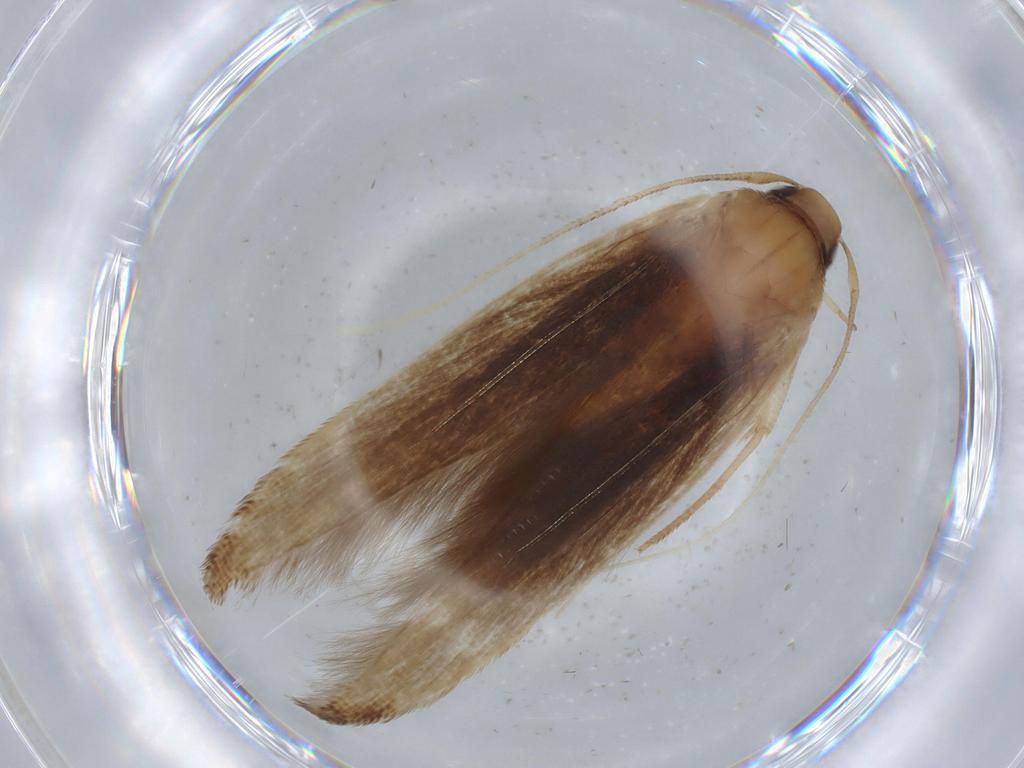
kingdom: Animalia
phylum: Arthropoda
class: Insecta
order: Lepidoptera
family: Cosmopterigidae
